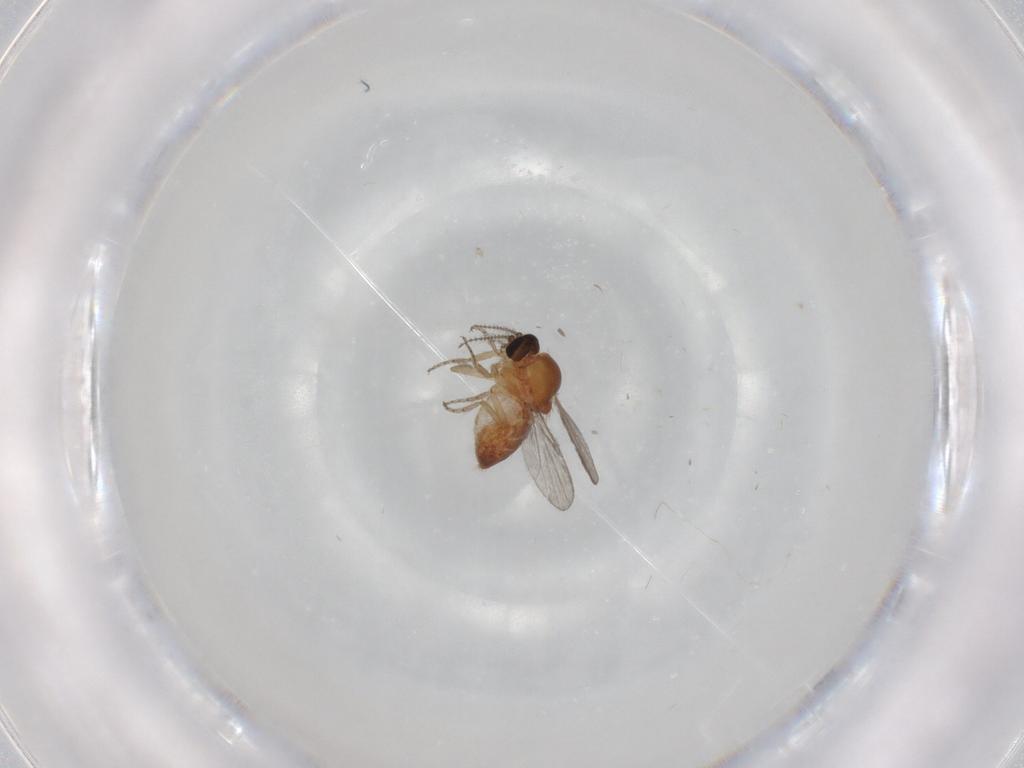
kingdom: Animalia
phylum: Arthropoda
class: Insecta
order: Diptera
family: Ceratopogonidae
